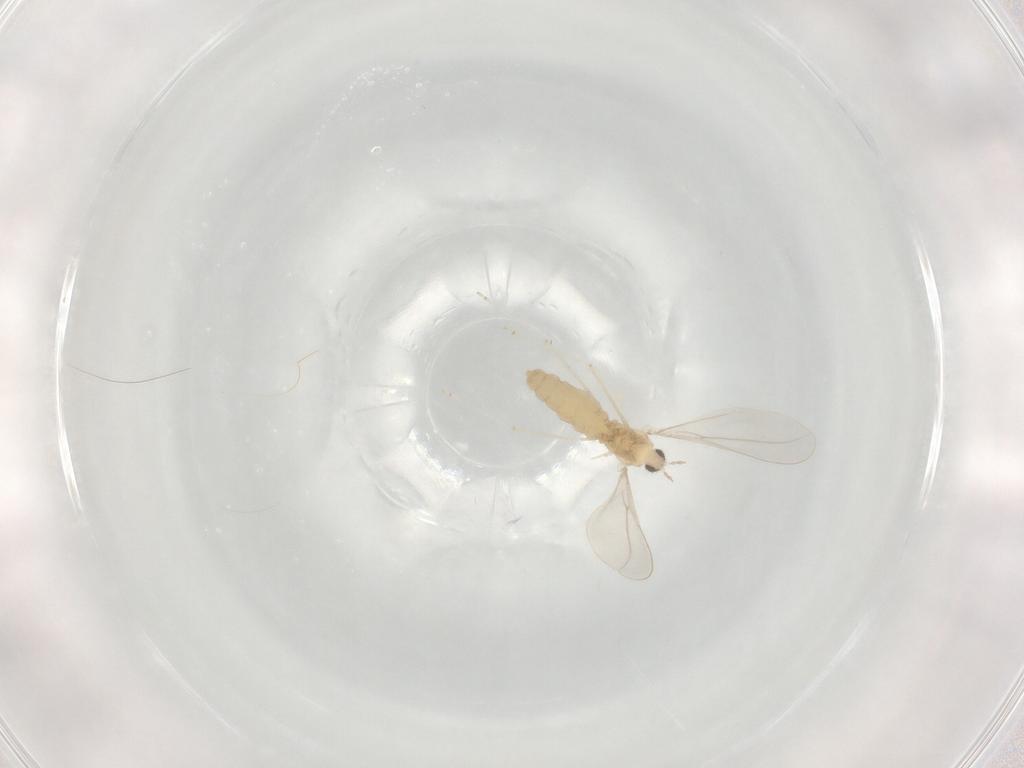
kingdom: Animalia
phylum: Arthropoda
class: Insecta
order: Diptera
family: Cecidomyiidae
